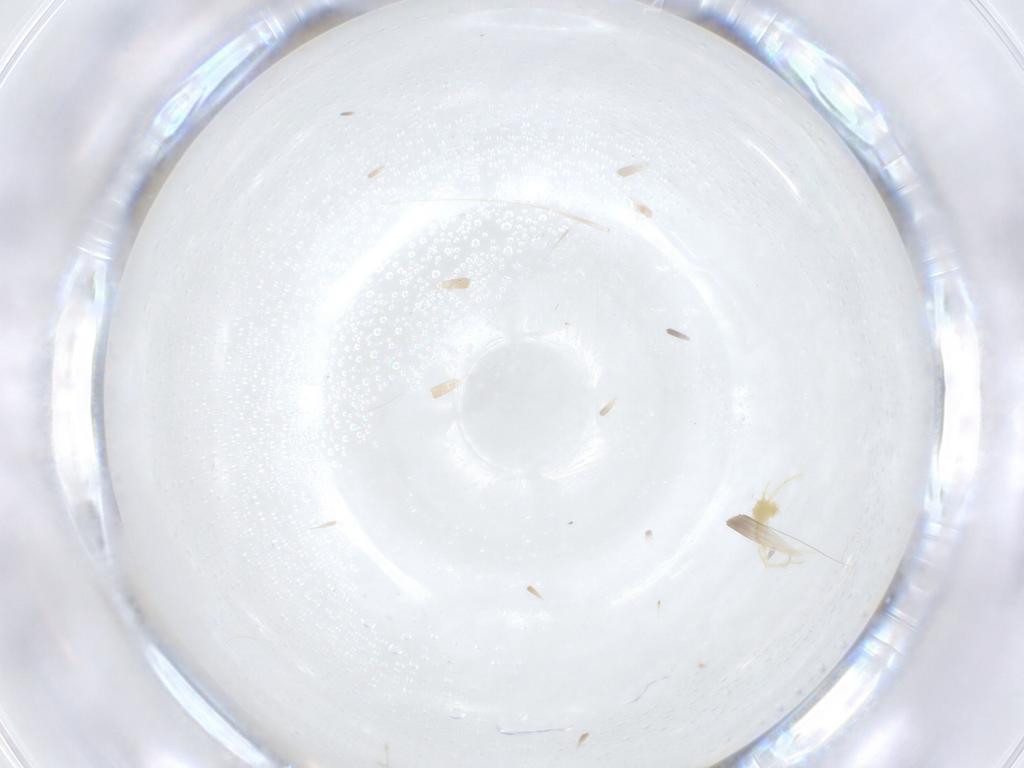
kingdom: Animalia
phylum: Arthropoda
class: Arachnida
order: Trombidiformes
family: Erythraeidae
